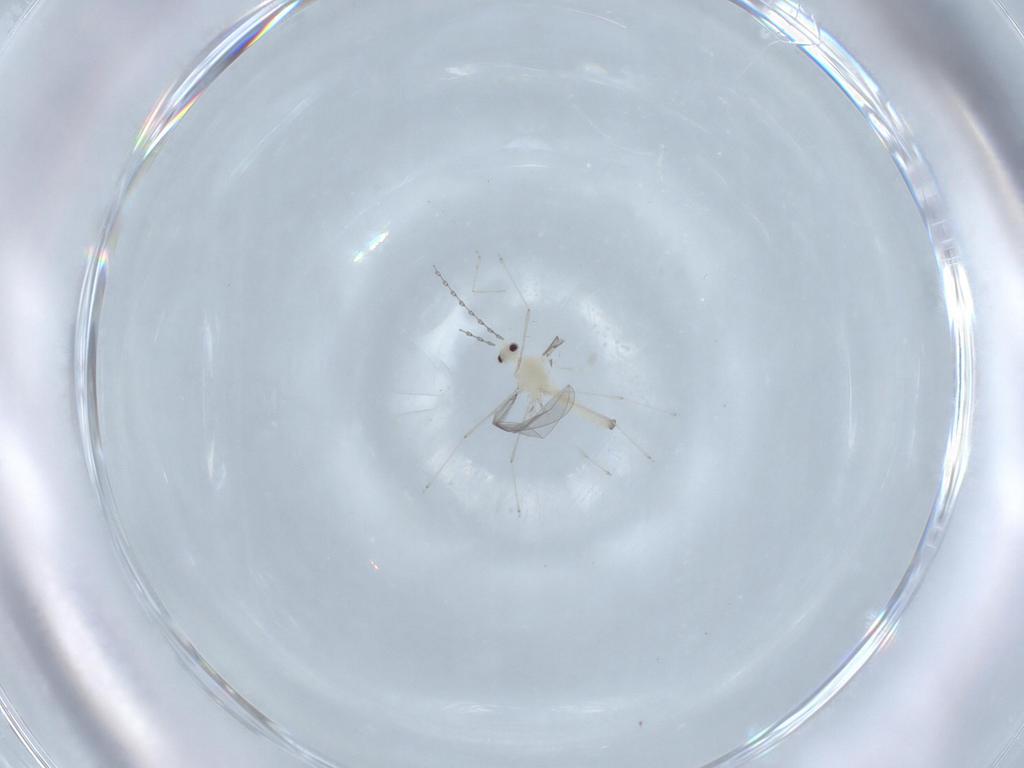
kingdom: Animalia
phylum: Arthropoda
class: Insecta
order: Diptera
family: Cecidomyiidae
